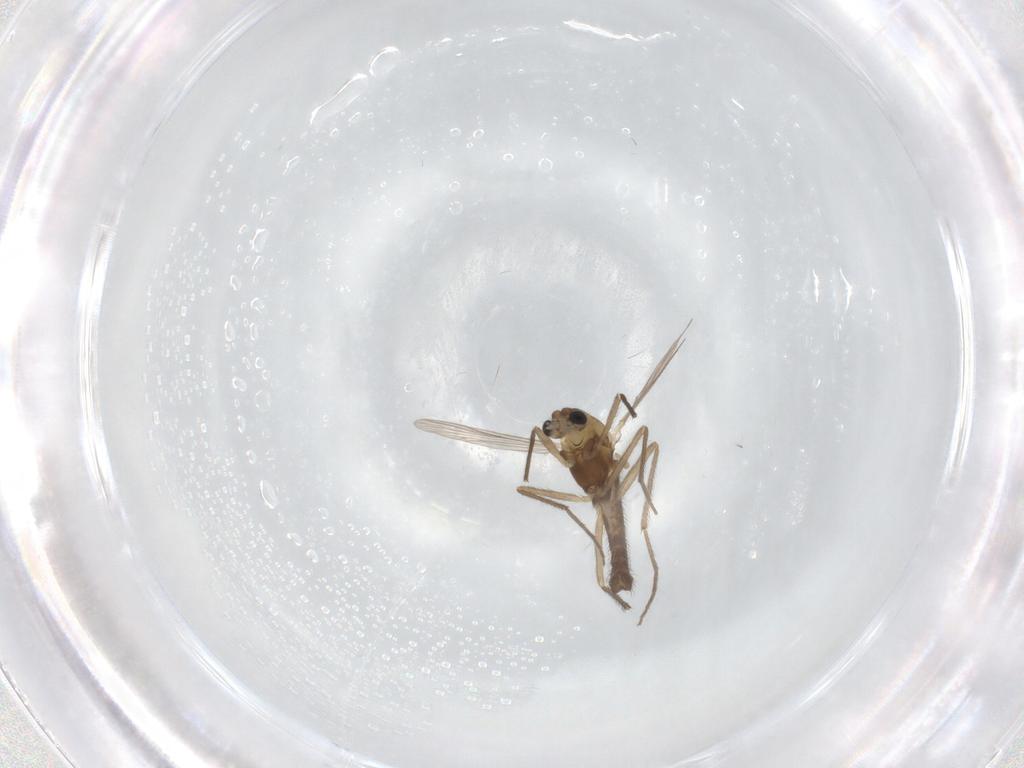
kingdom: Animalia
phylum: Arthropoda
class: Insecta
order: Diptera
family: Chironomidae
